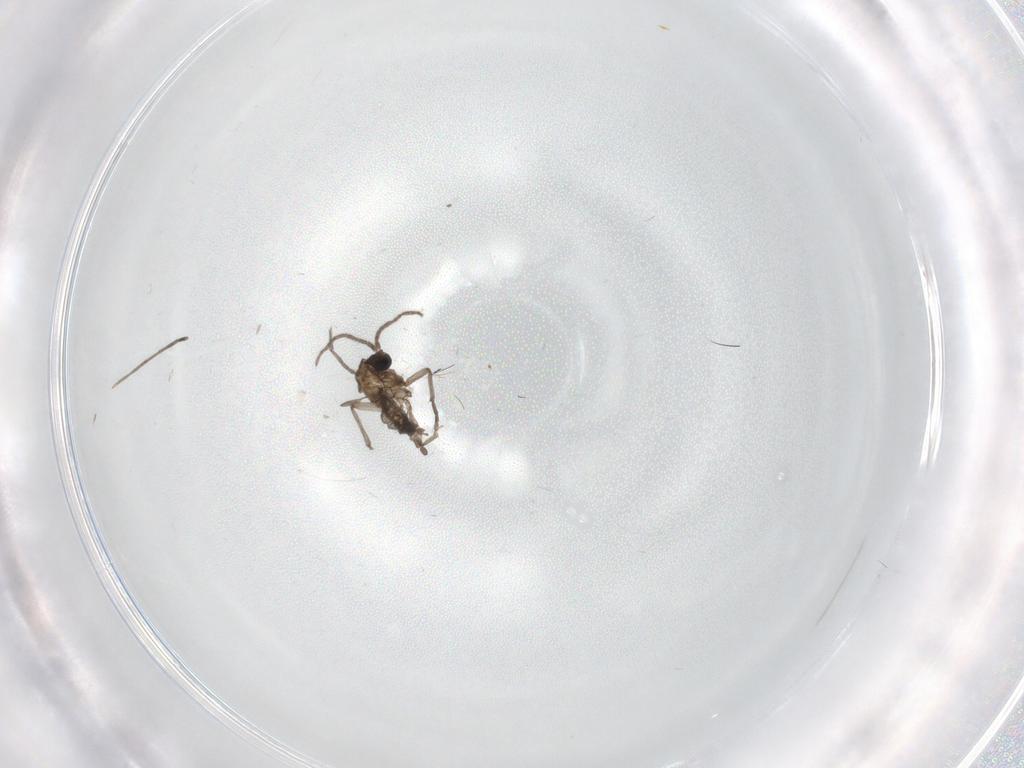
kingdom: Animalia
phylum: Arthropoda
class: Insecta
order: Diptera
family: Sciaridae
